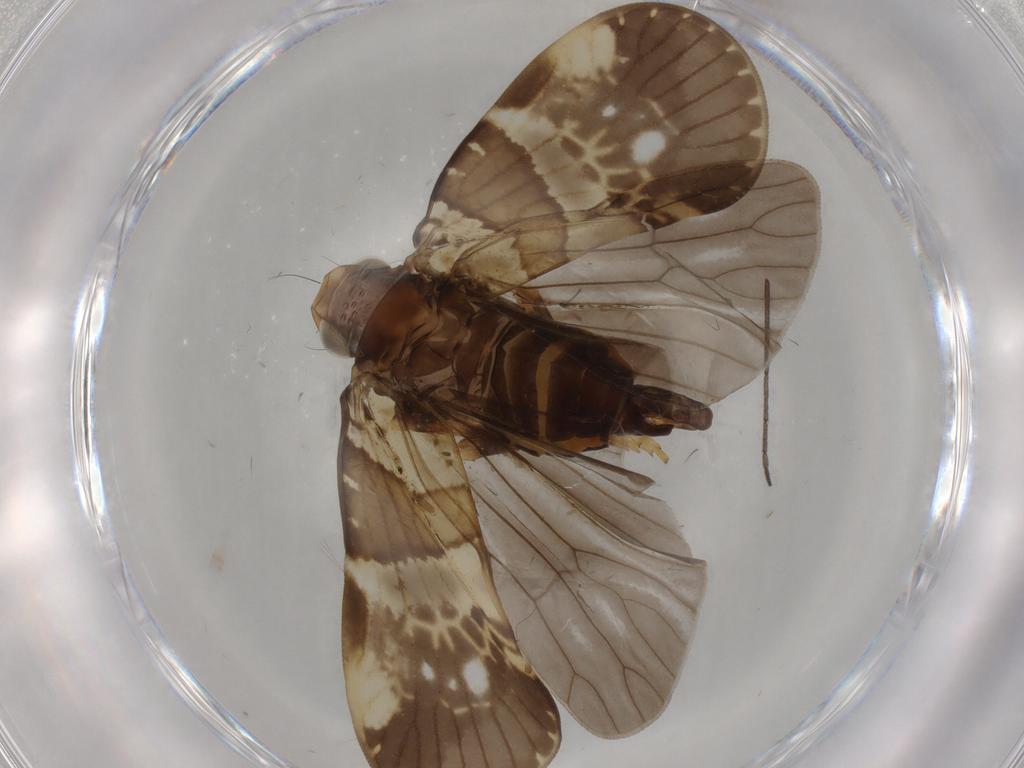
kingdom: Animalia
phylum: Arthropoda
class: Insecta
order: Hemiptera
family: Cixiidae
